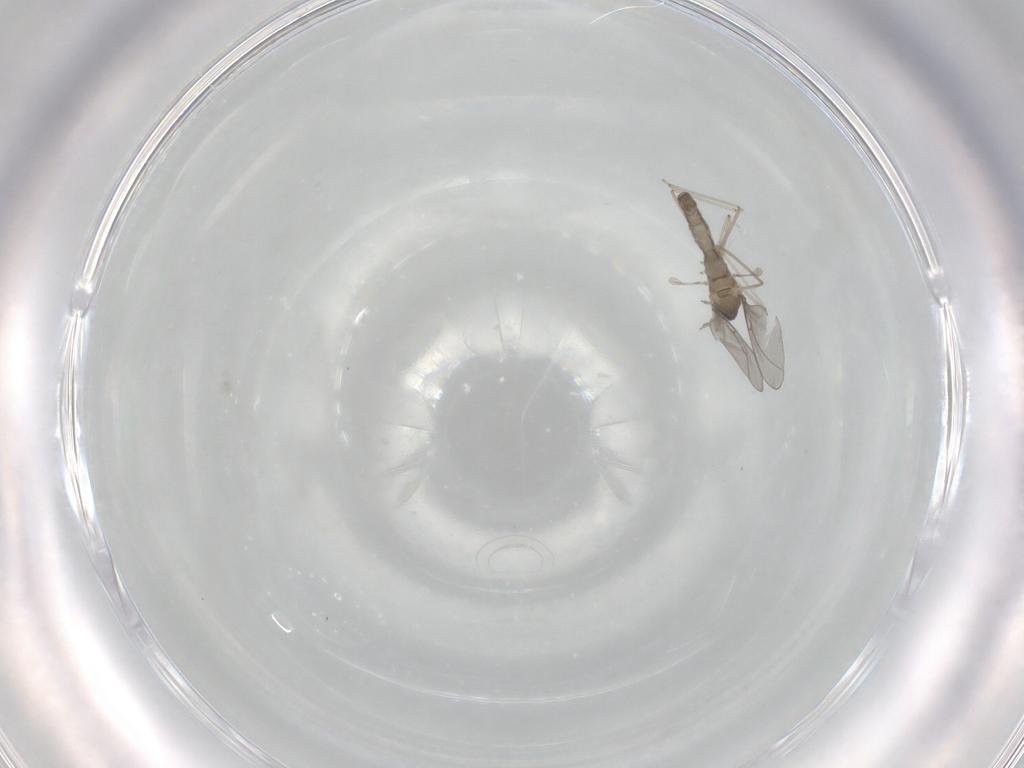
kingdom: Animalia
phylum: Arthropoda
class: Insecta
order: Diptera
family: Cecidomyiidae
